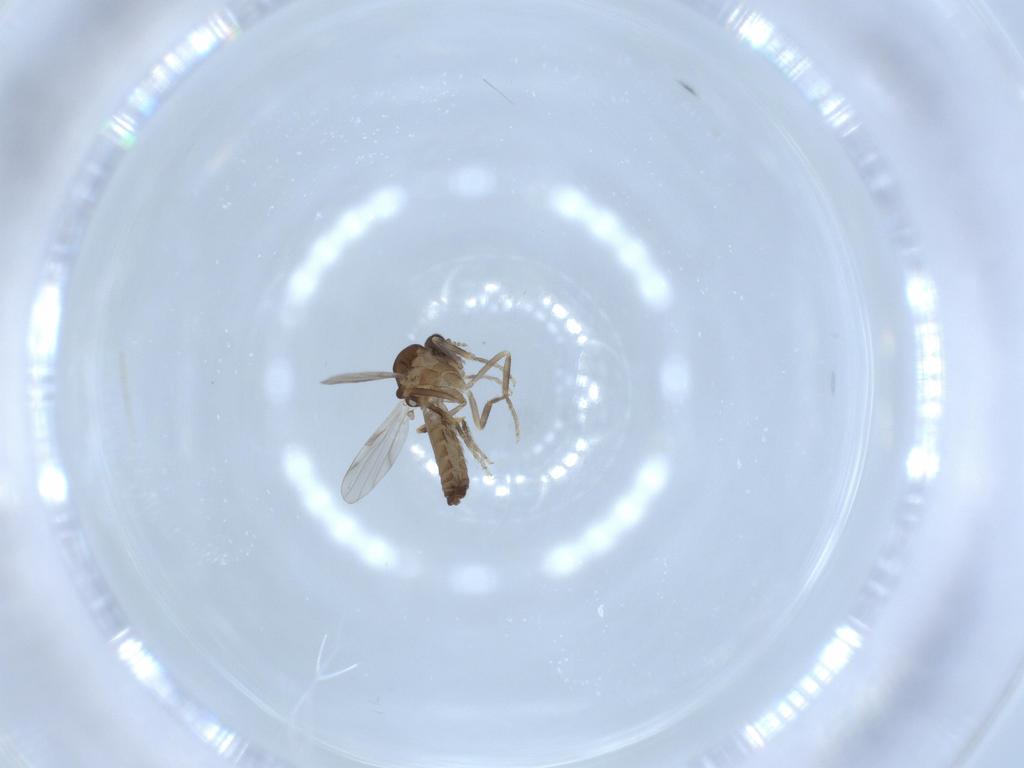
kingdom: Animalia
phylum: Arthropoda
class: Insecta
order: Diptera
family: Ceratopogonidae
